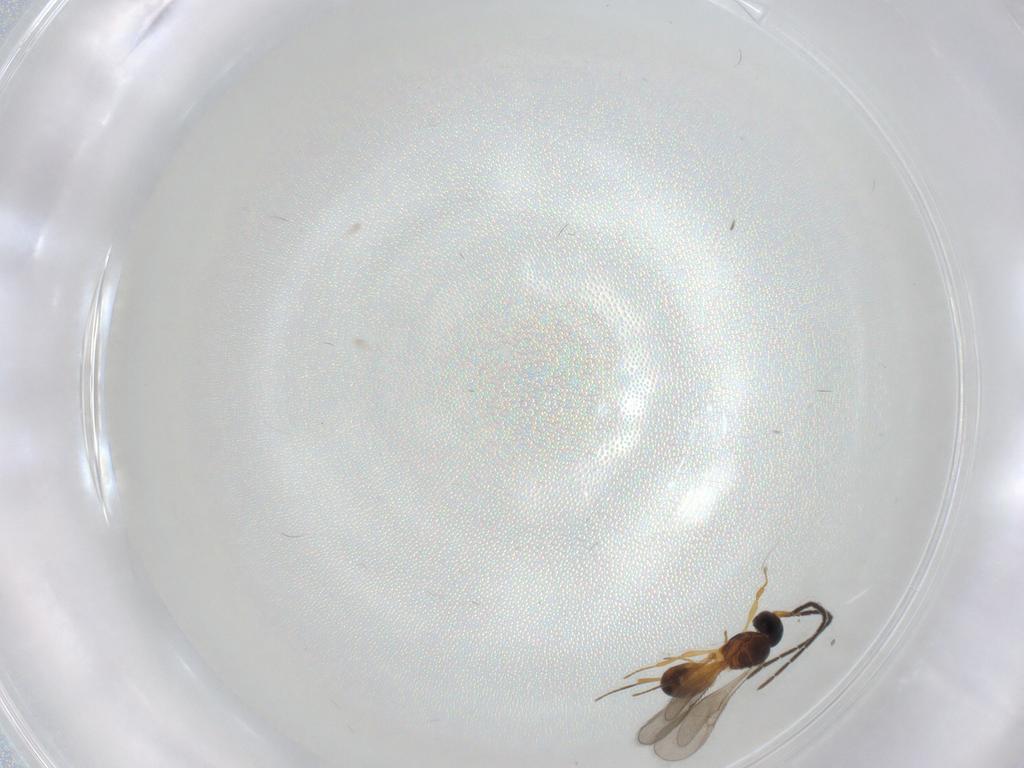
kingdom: Animalia
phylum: Arthropoda
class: Insecta
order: Hymenoptera
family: Scelionidae
